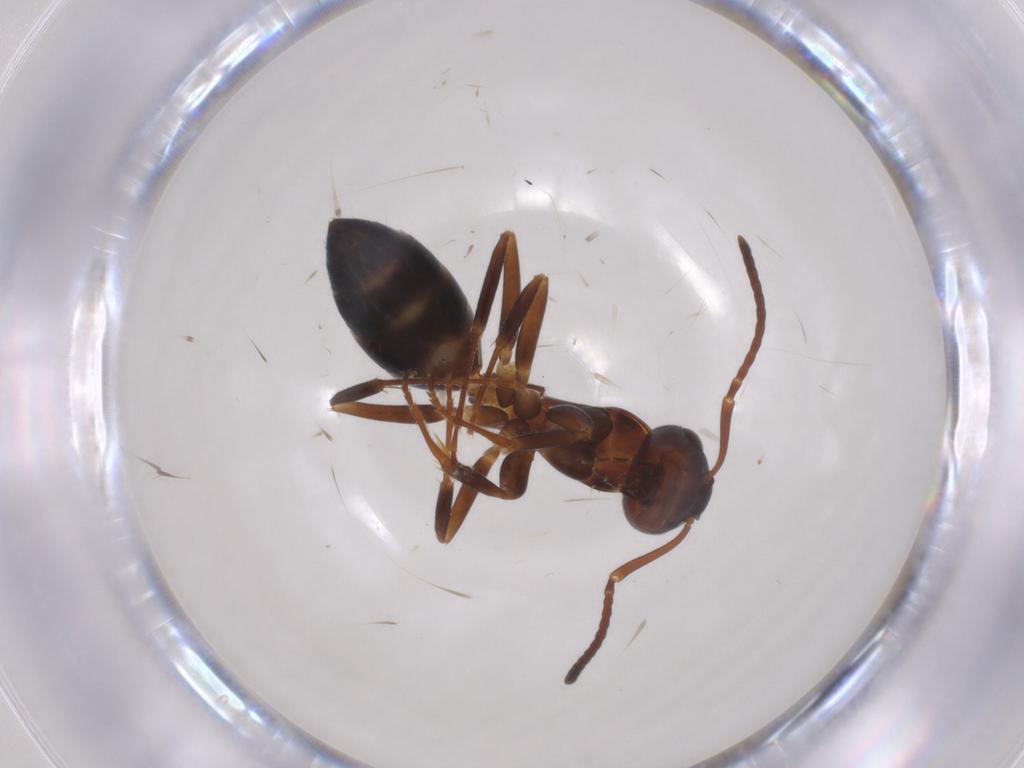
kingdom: Animalia
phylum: Arthropoda
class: Insecta
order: Hymenoptera
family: Formicidae
